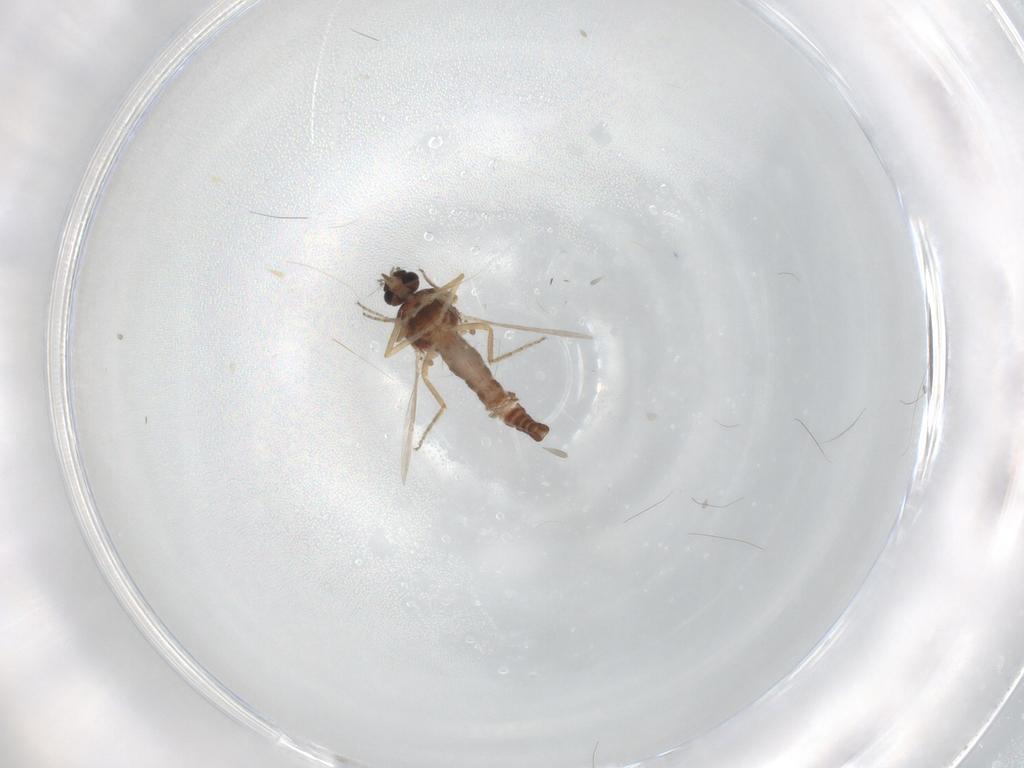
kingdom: Animalia
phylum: Arthropoda
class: Insecta
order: Diptera
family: Ceratopogonidae
